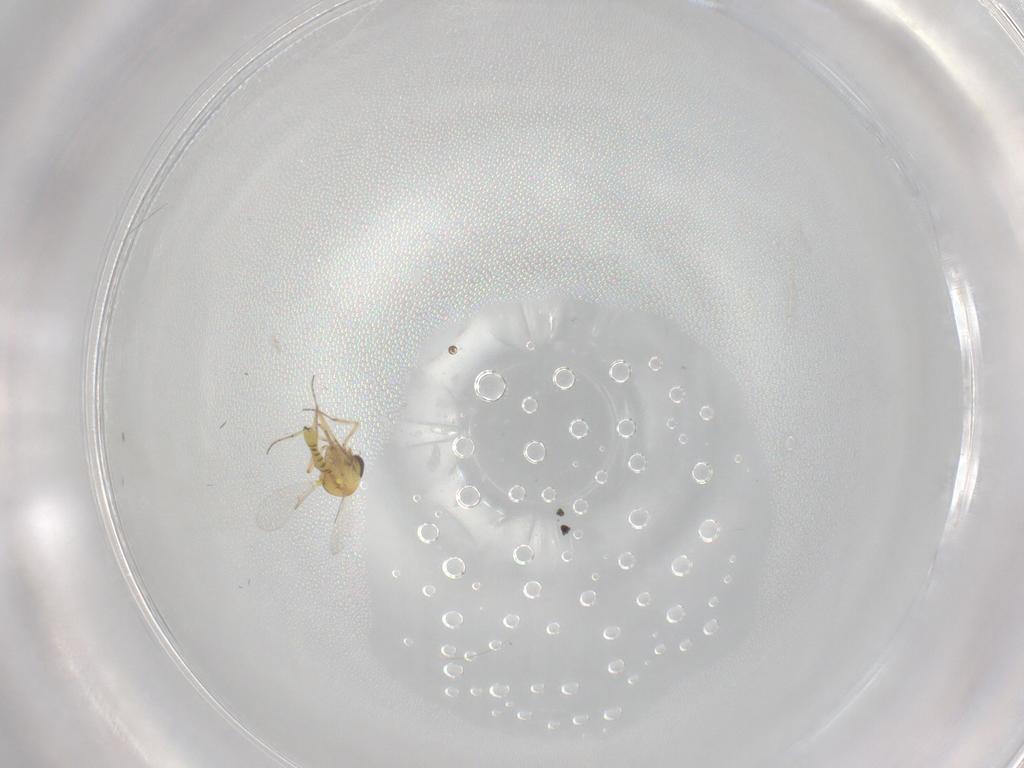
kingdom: Animalia
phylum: Arthropoda
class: Insecta
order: Diptera
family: Ceratopogonidae
